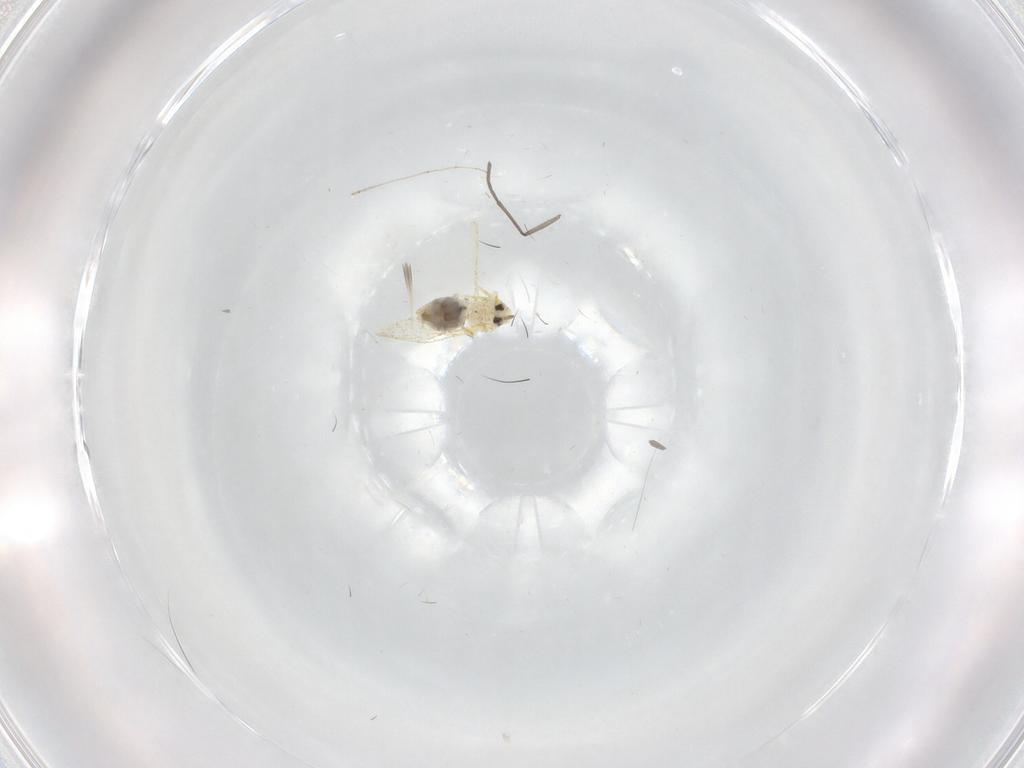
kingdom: Animalia
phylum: Arthropoda
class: Insecta
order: Hemiptera
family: Aleyrodidae
